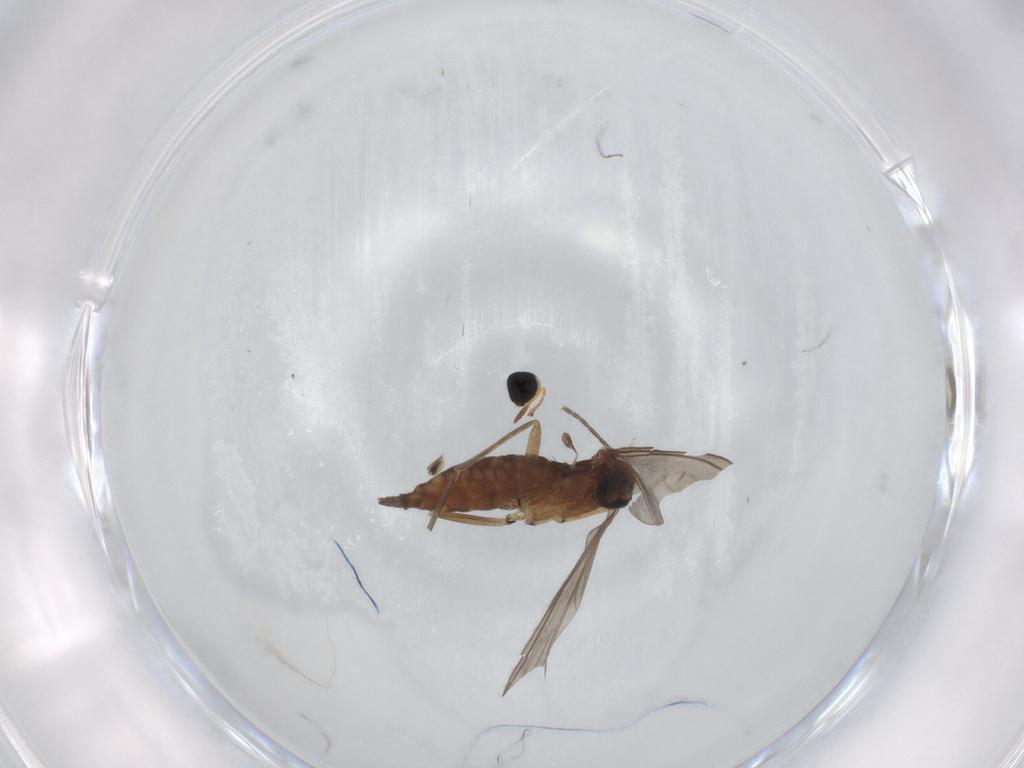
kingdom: Animalia
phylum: Arthropoda
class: Insecta
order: Diptera
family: Sciaridae
